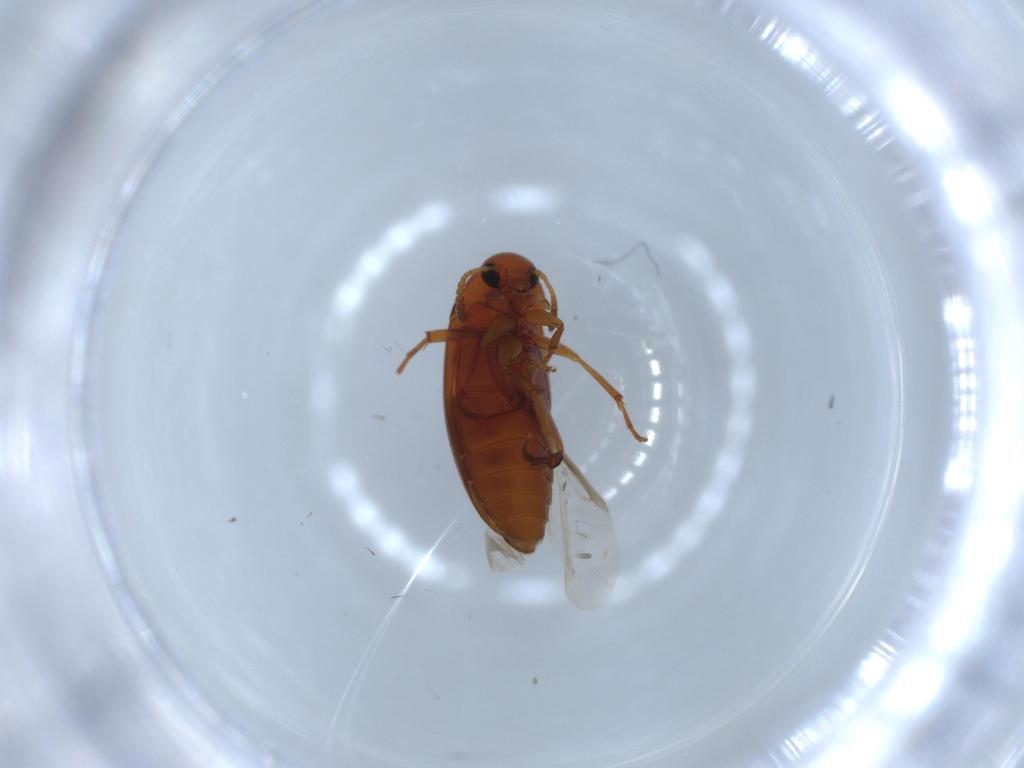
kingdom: Animalia
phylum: Arthropoda
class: Insecta
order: Coleoptera
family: Scraptiidae
